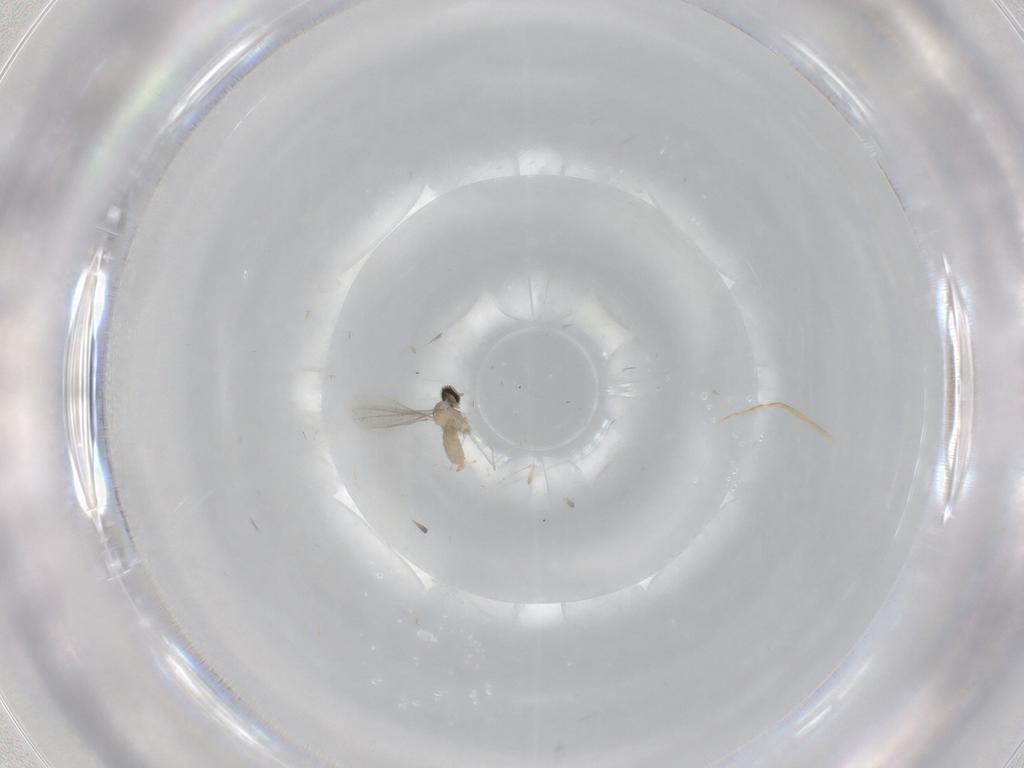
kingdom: Animalia
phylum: Arthropoda
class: Insecta
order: Diptera
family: Cecidomyiidae
